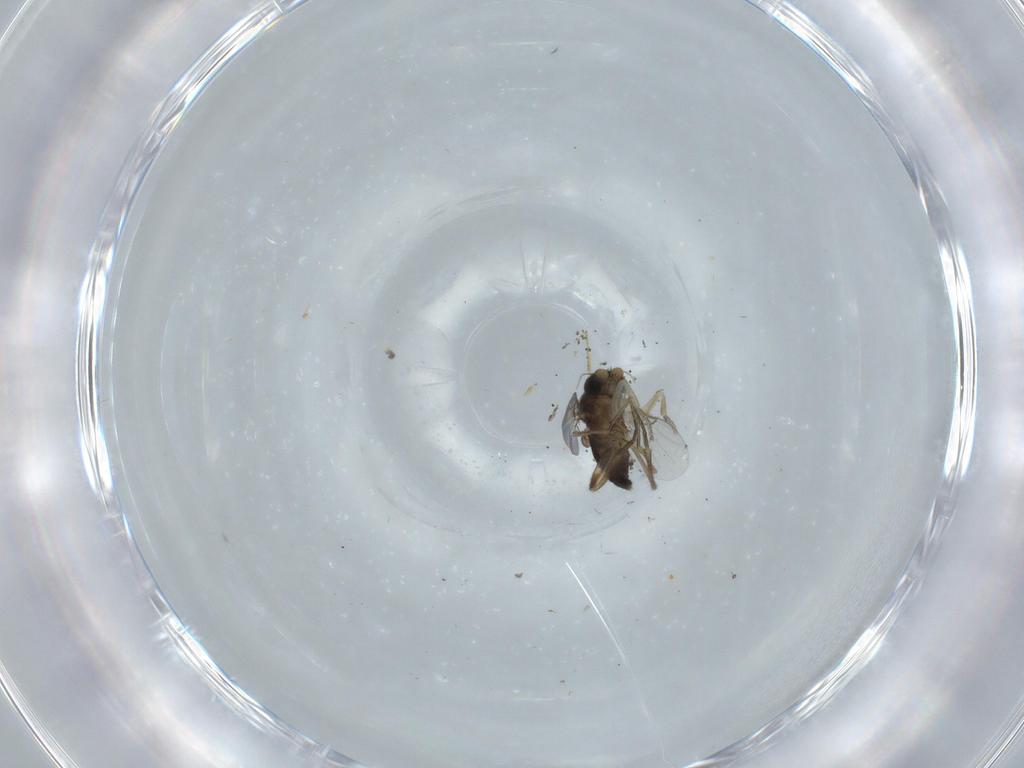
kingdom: Animalia
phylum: Arthropoda
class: Insecta
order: Diptera
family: Phoridae
